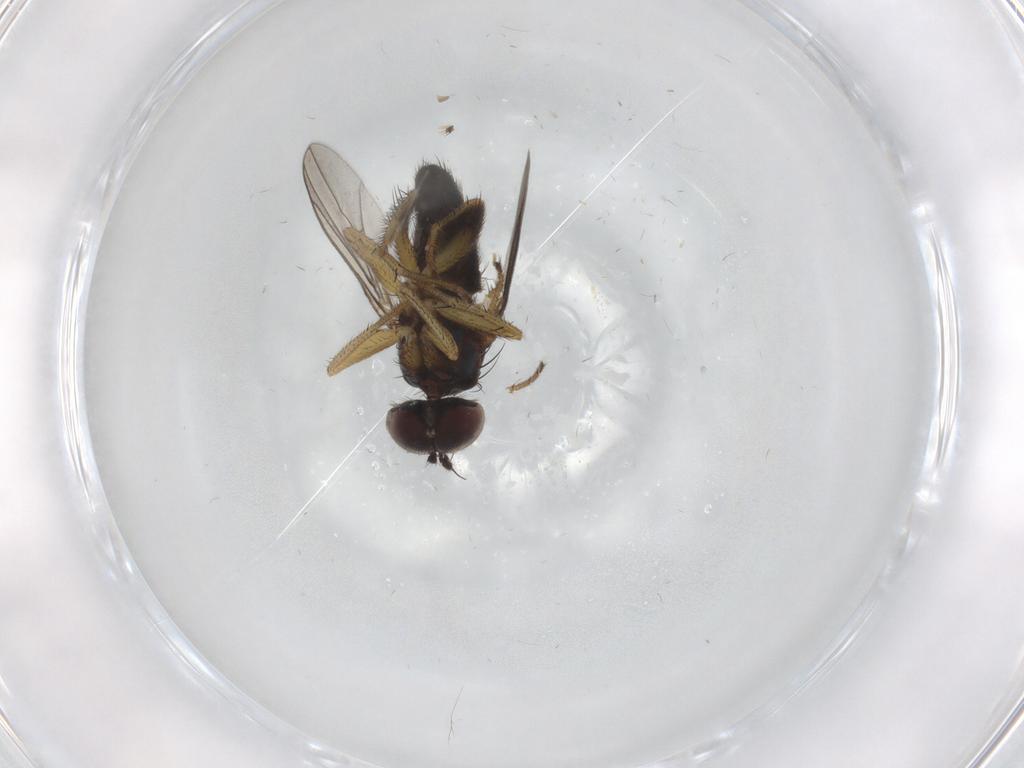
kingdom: Animalia
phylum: Arthropoda
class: Insecta
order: Diptera
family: Dolichopodidae
